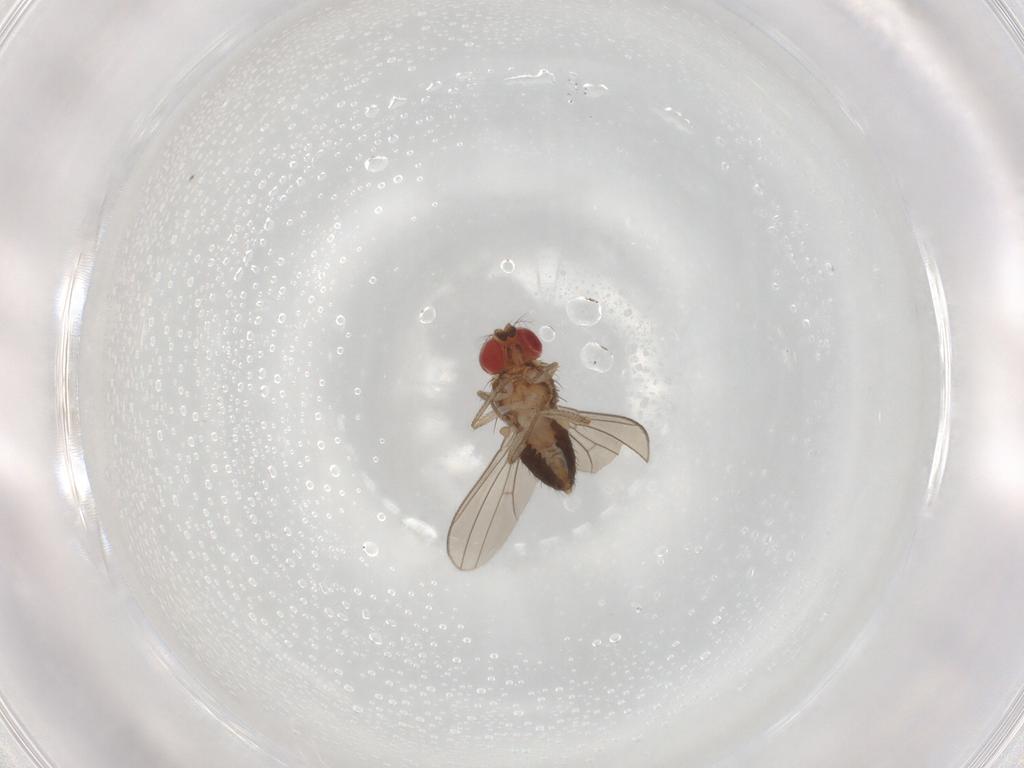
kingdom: Animalia
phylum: Arthropoda
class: Insecta
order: Diptera
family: Drosophilidae
